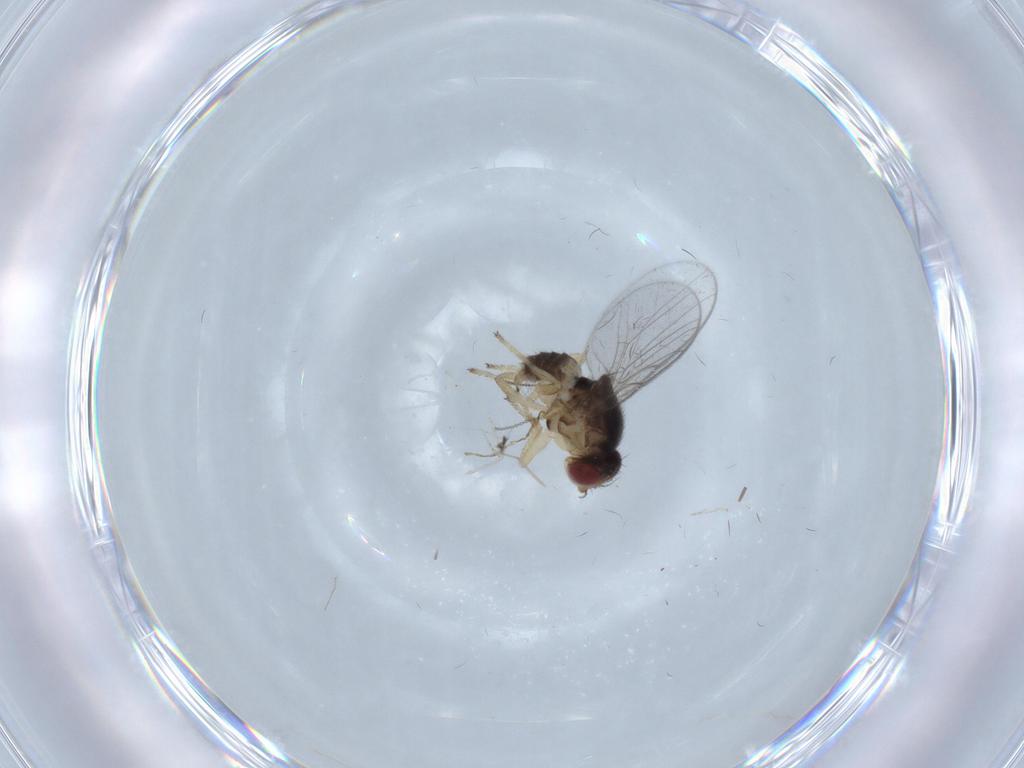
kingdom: Animalia
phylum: Arthropoda
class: Insecta
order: Diptera
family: Chloropidae
